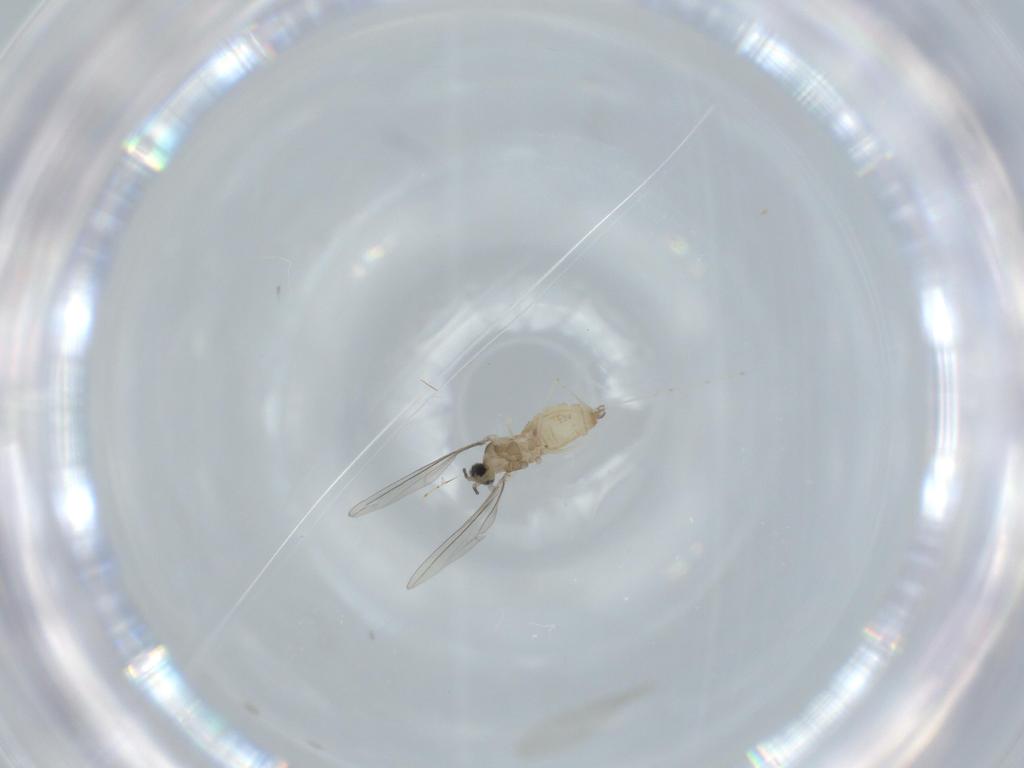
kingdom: Animalia
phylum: Arthropoda
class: Insecta
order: Diptera
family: Cecidomyiidae
